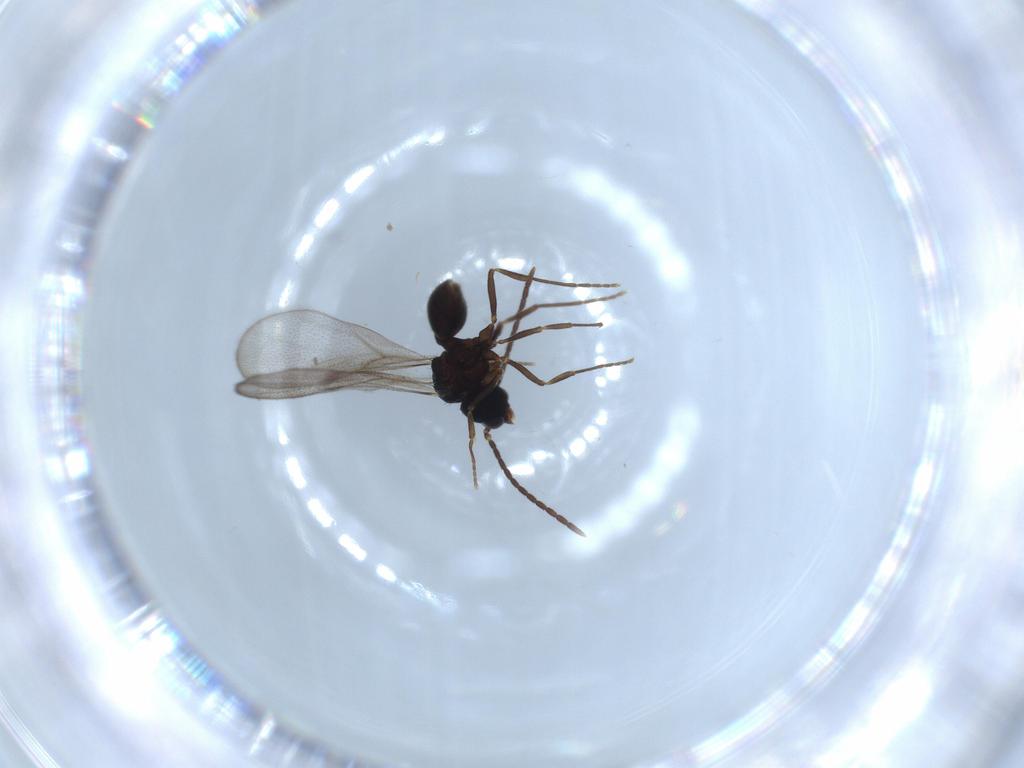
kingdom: Animalia
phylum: Arthropoda
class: Insecta
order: Hymenoptera
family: Formicidae
